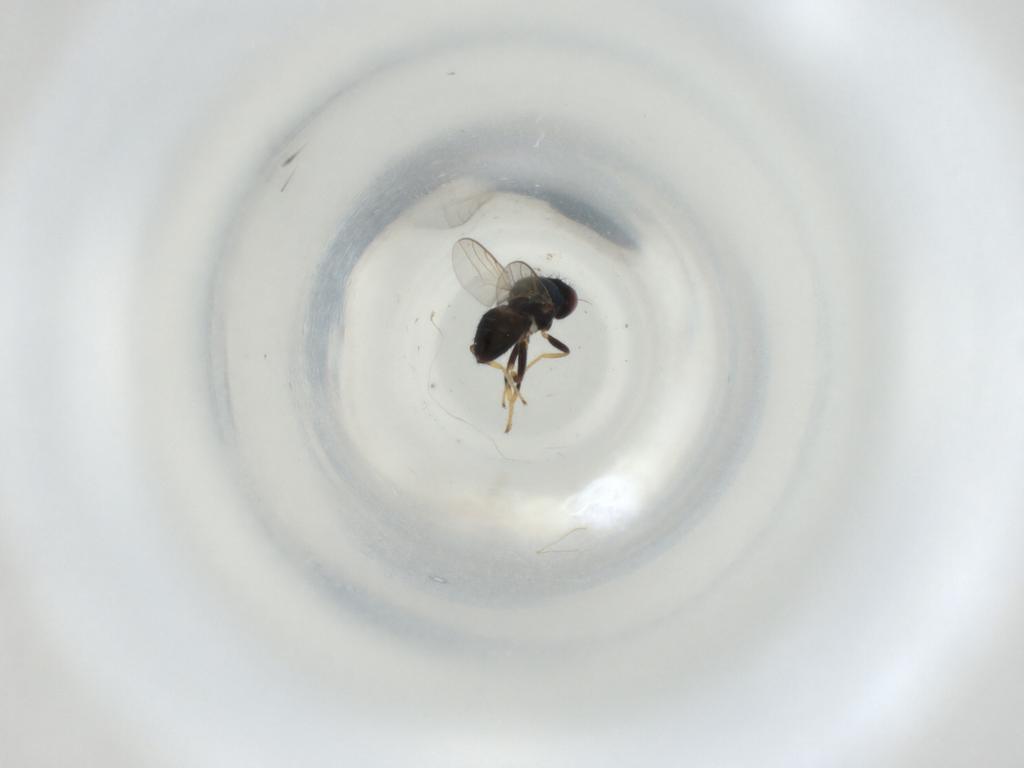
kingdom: Animalia
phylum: Arthropoda
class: Insecta
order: Diptera
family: Chloropidae
